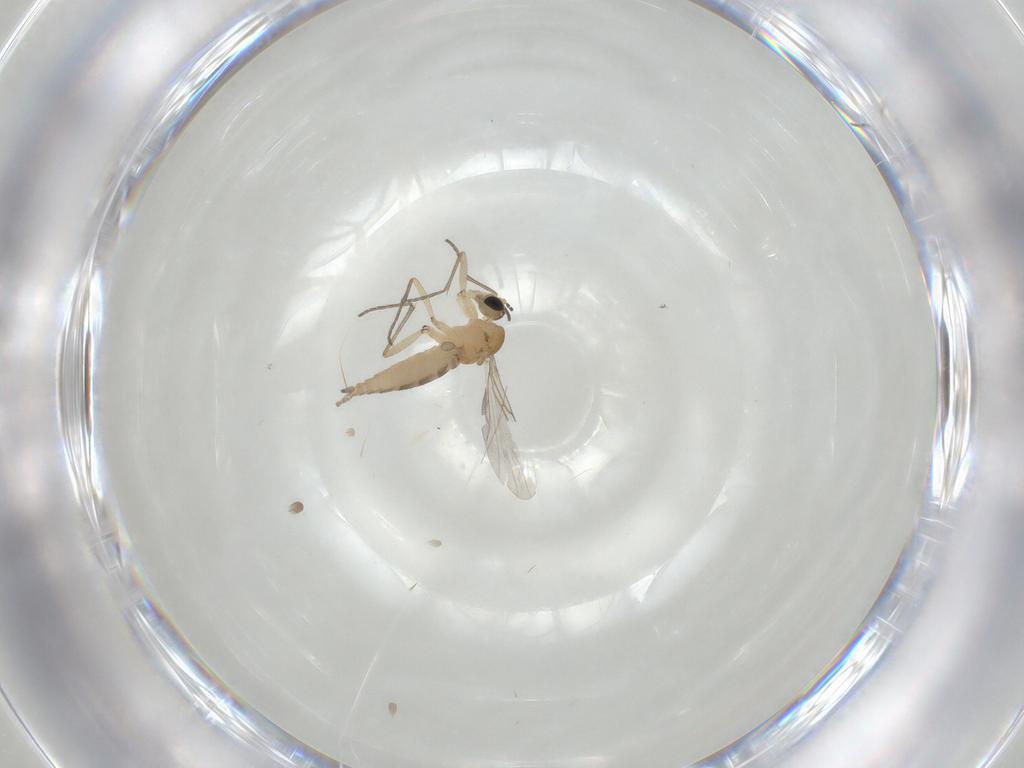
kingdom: Animalia
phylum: Arthropoda
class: Insecta
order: Diptera
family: Sciaridae
